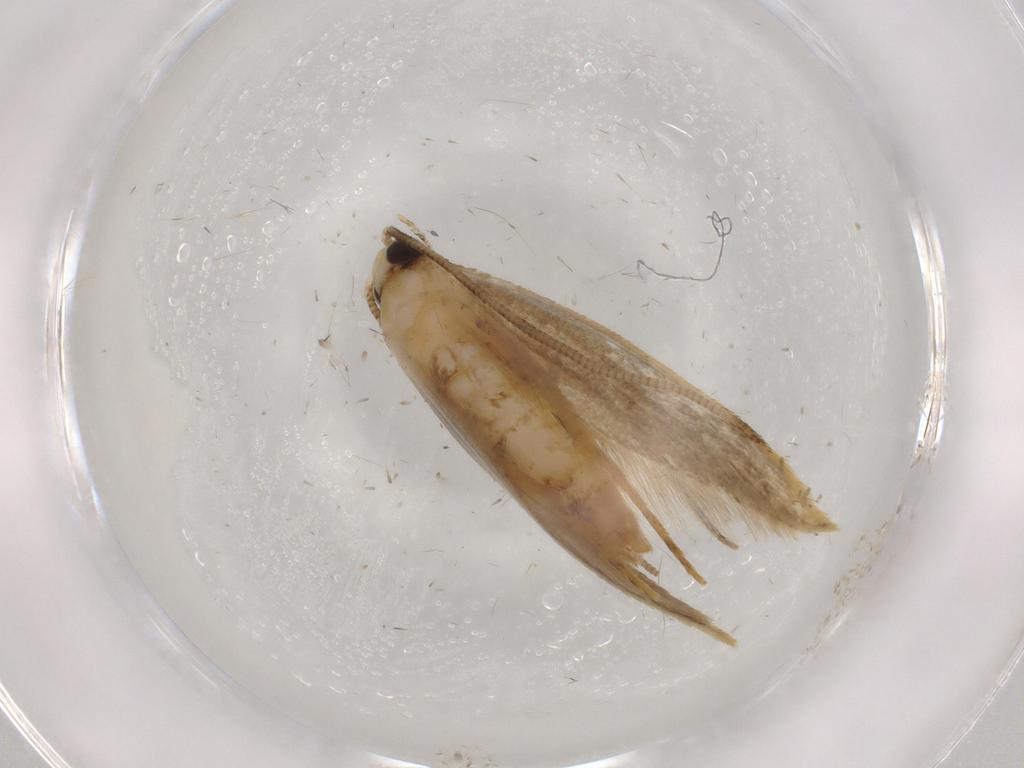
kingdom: Animalia
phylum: Arthropoda
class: Insecta
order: Lepidoptera
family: Tineidae
